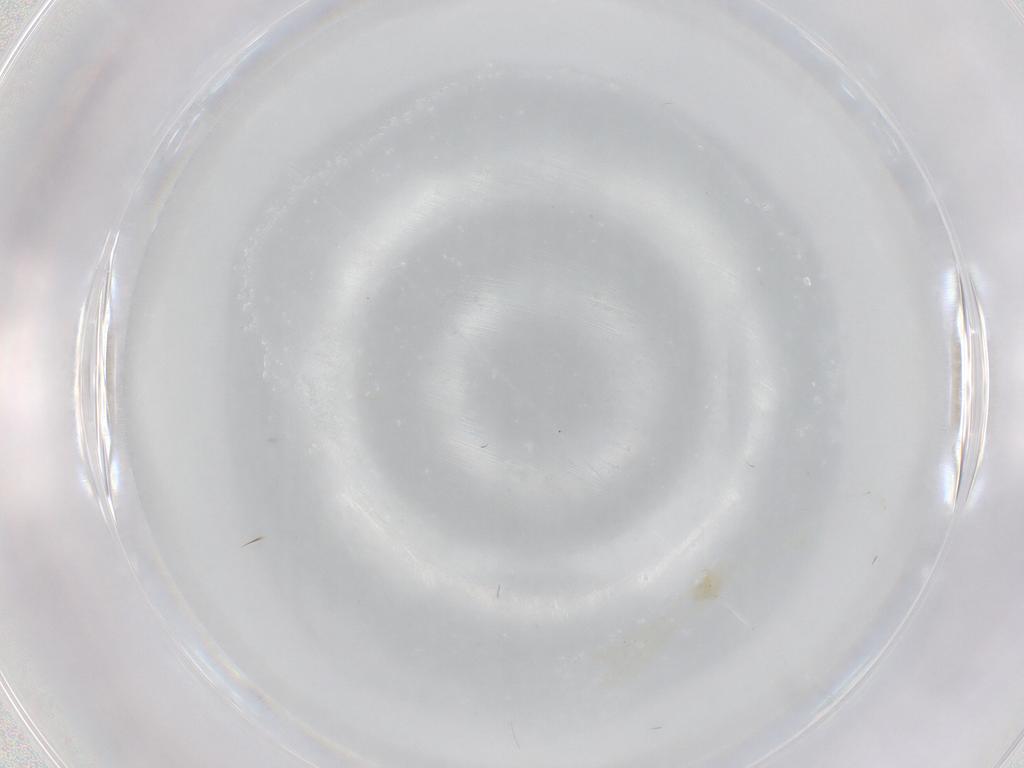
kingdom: Animalia
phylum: Arthropoda
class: Insecta
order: Diptera
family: Cecidomyiidae
